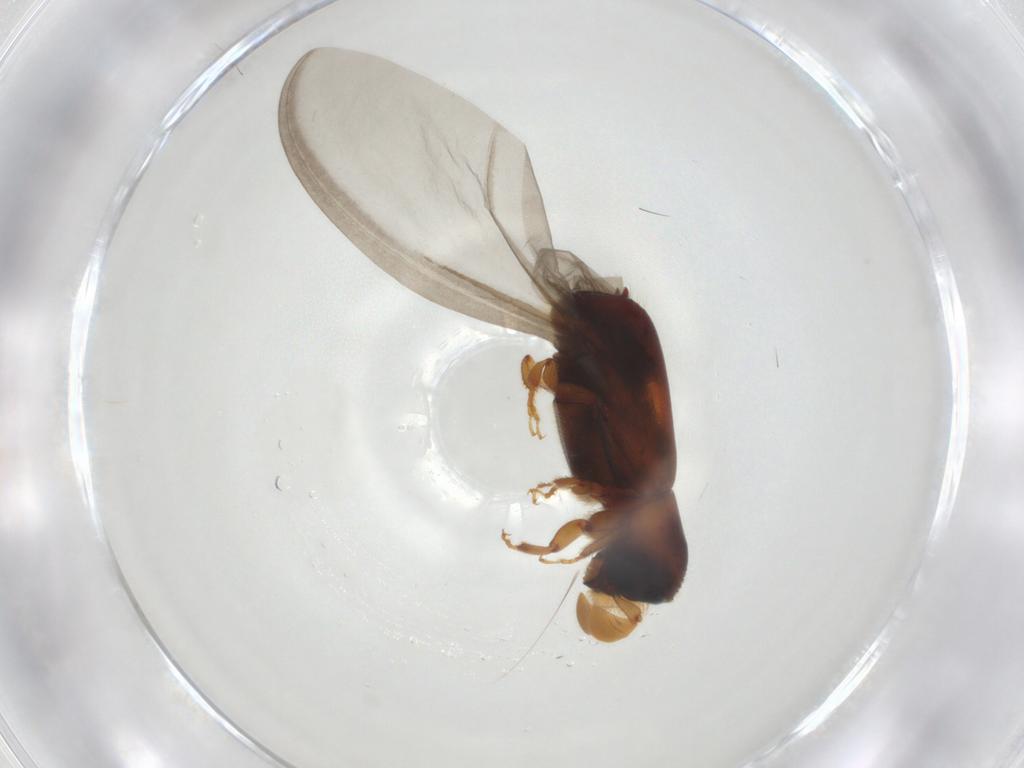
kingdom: Animalia
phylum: Arthropoda
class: Insecta
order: Coleoptera
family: Curculionidae
